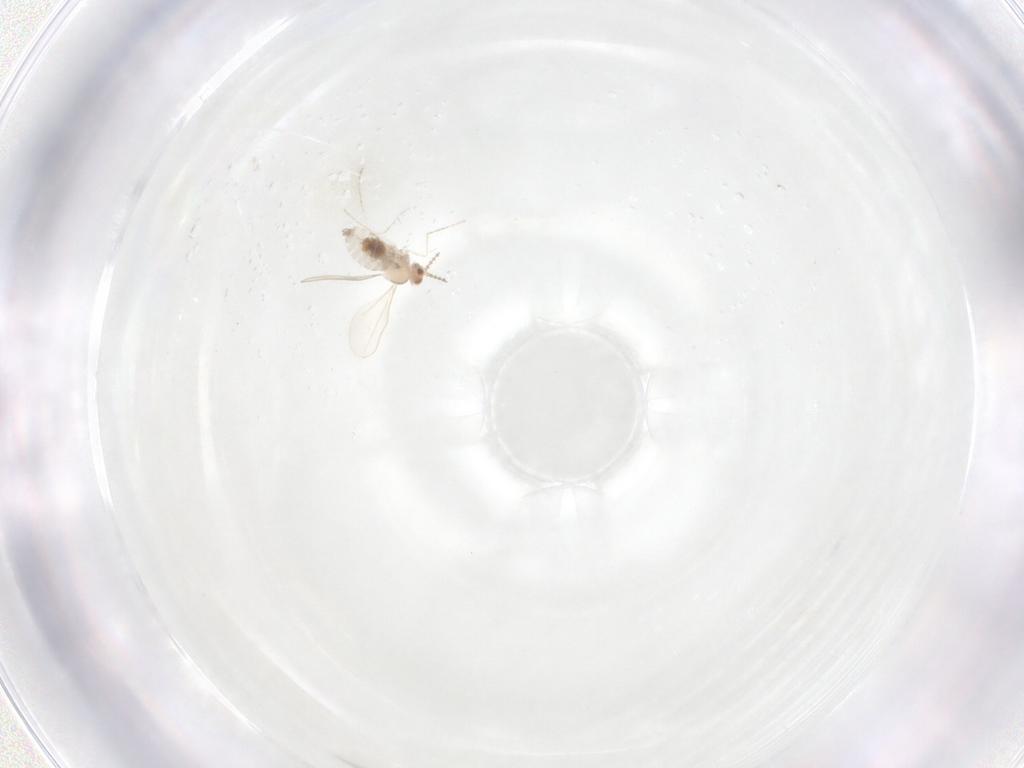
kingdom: Animalia
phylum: Arthropoda
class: Insecta
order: Diptera
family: Cecidomyiidae
